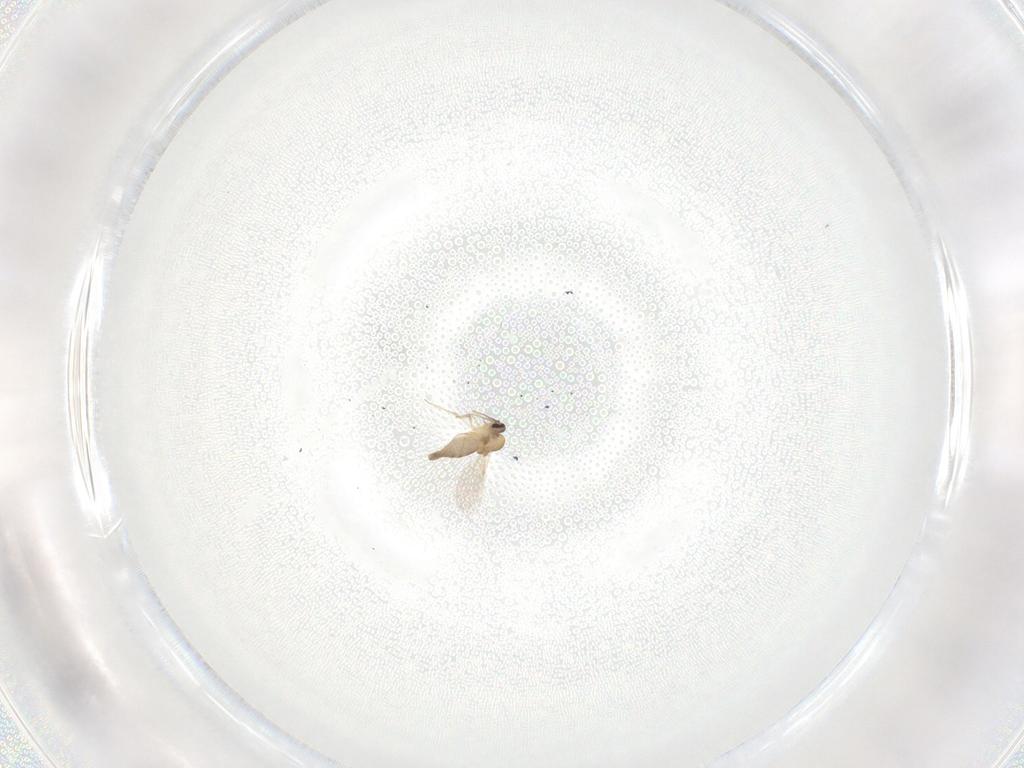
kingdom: Animalia
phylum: Arthropoda
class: Insecta
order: Diptera
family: Ceratopogonidae
